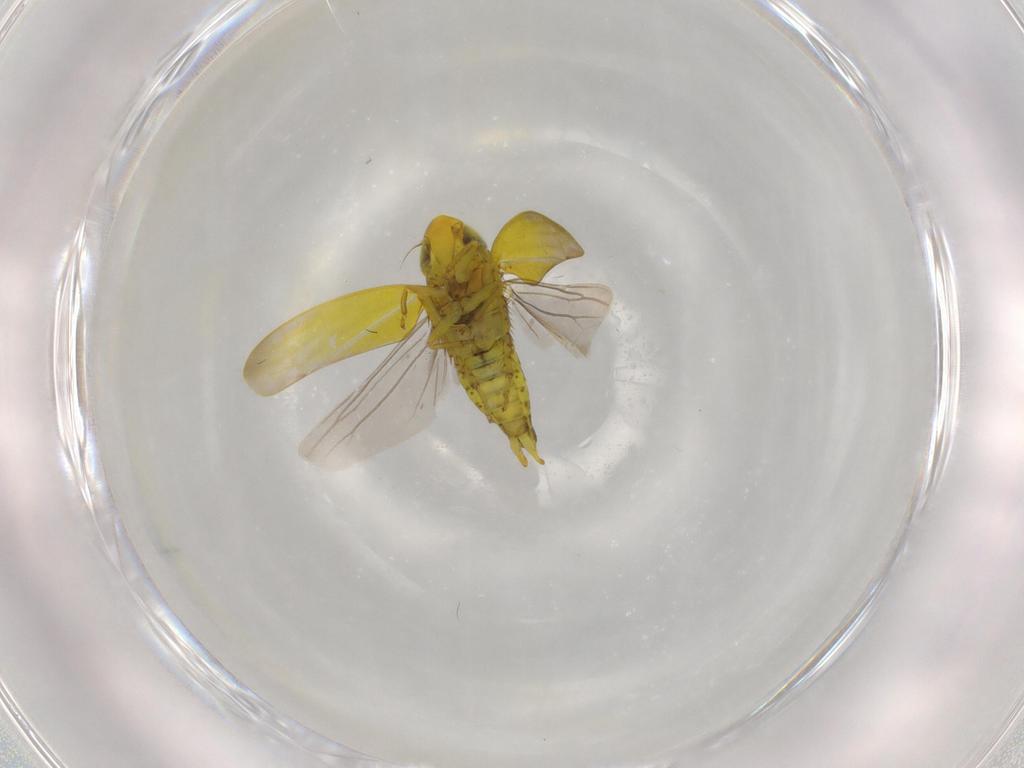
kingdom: Animalia
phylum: Arthropoda
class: Insecta
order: Hemiptera
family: Cicadellidae
